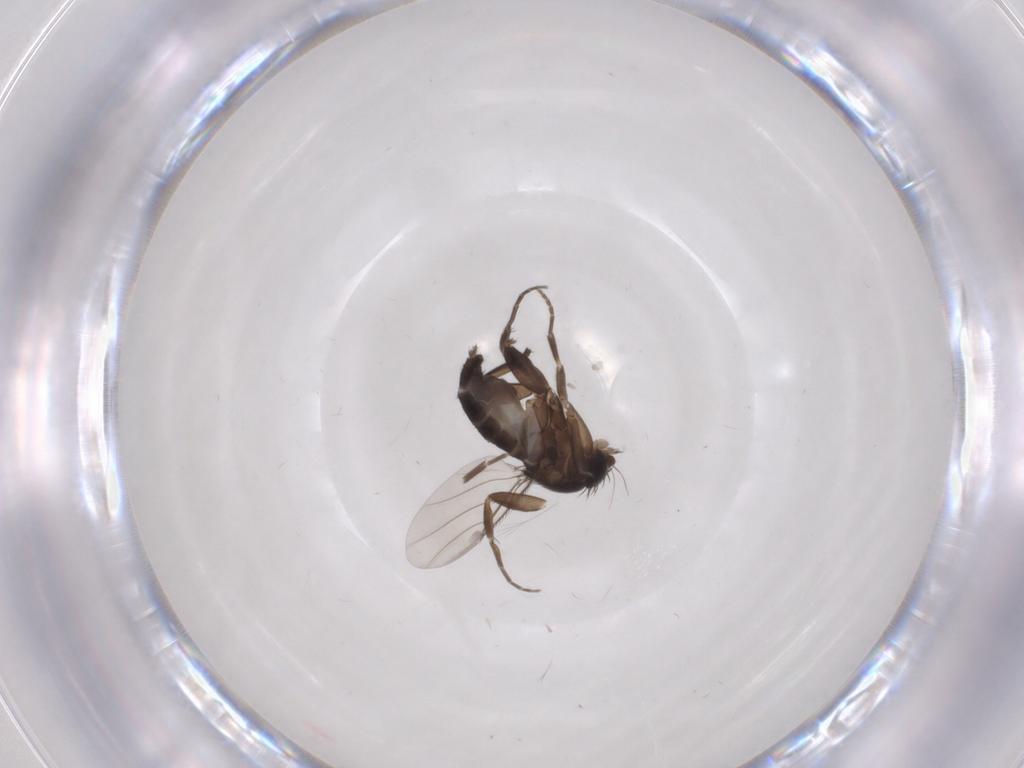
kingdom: Animalia
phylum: Arthropoda
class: Insecta
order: Diptera
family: Phoridae
